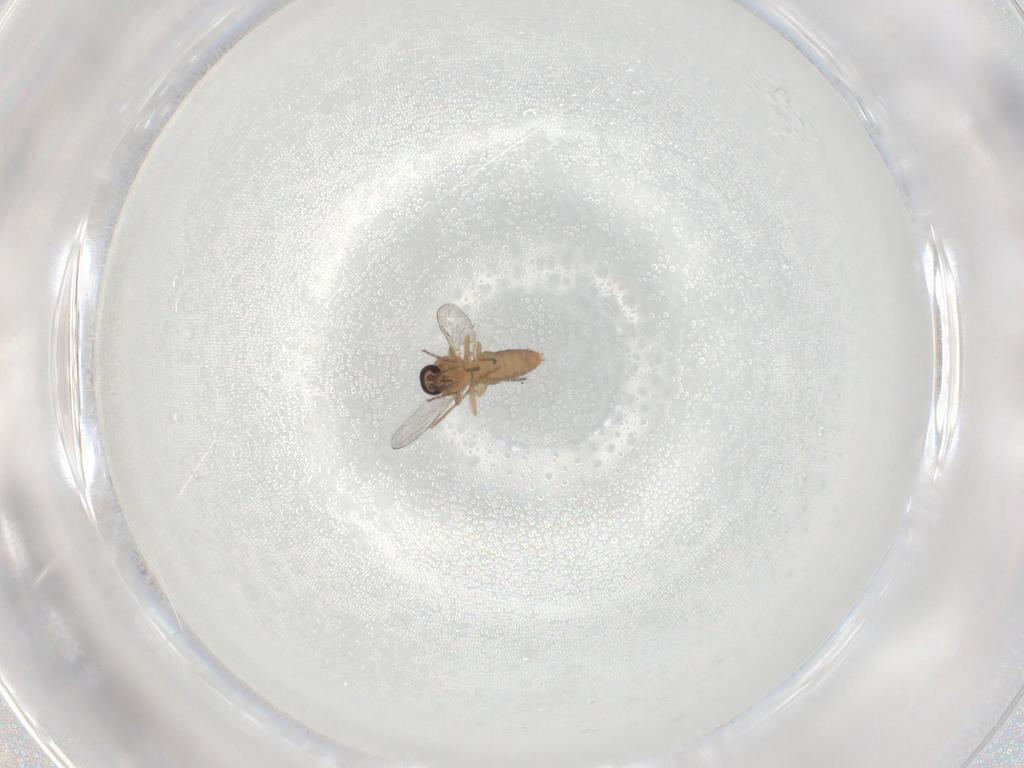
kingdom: Animalia
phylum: Arthropoda
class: Insecta
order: Diptera
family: Ceratopogonidae
